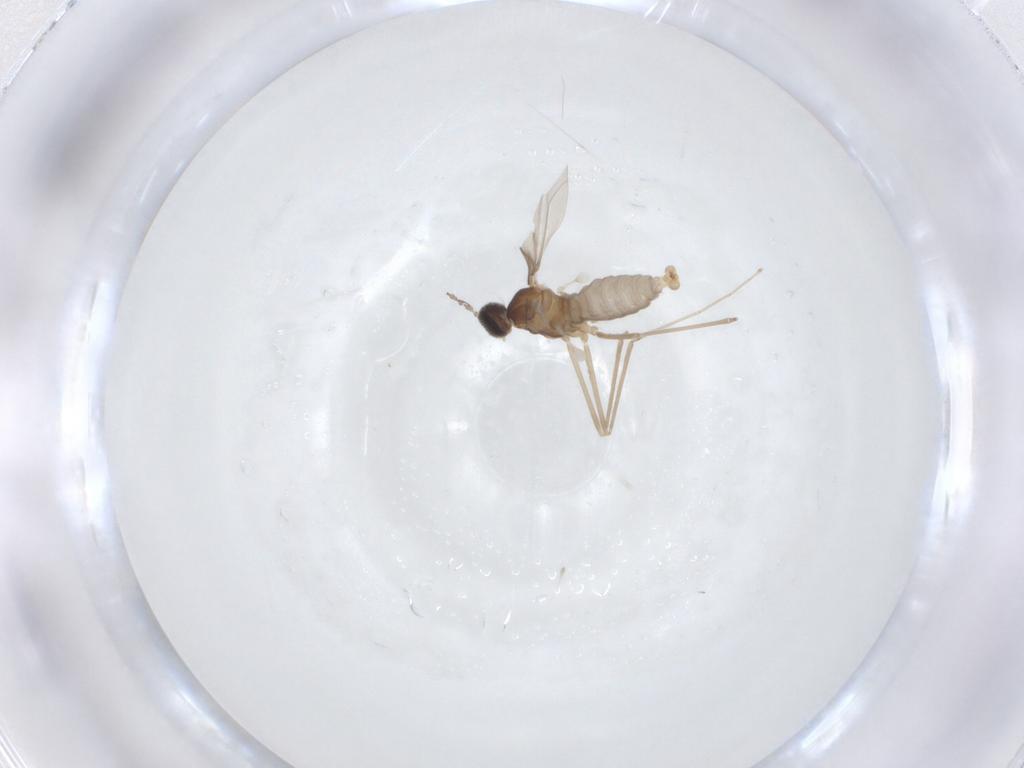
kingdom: Animalia
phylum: Arthropoda
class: Insecta
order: Diptera
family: Cecidomyiidae
